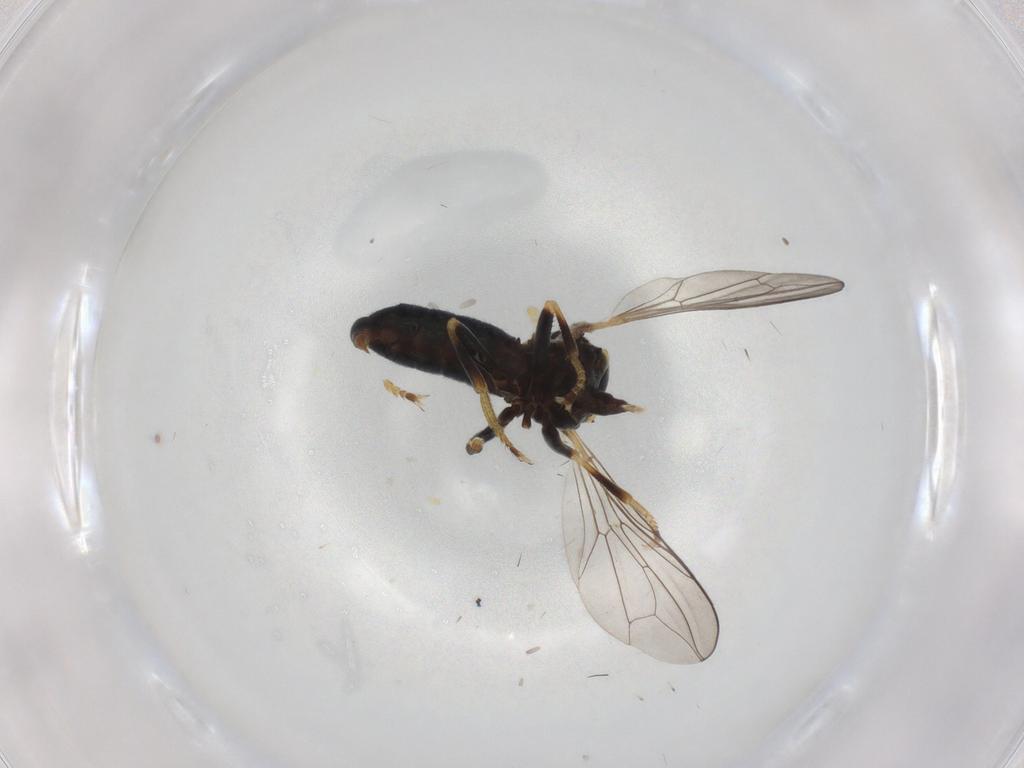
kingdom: Animalia
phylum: Arthropoda
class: Insecta
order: Diptera
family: Pipunculidae
